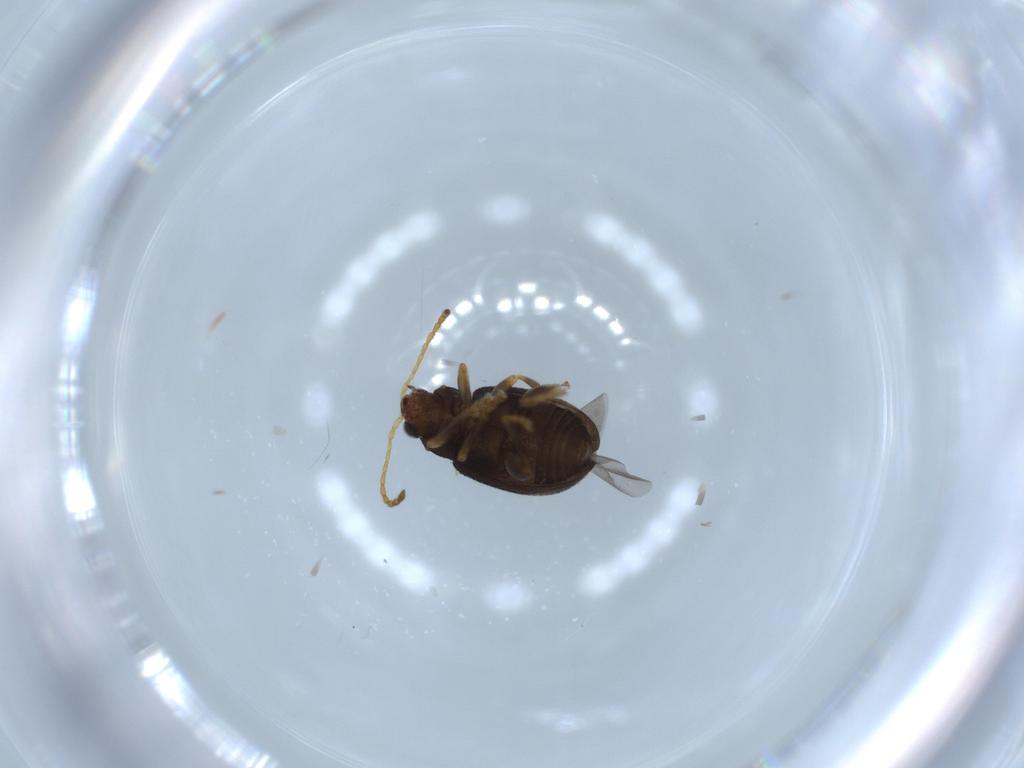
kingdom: Animalia
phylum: Arthropoda
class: Insecta
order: Coleoptera
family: Chrysomelidae
